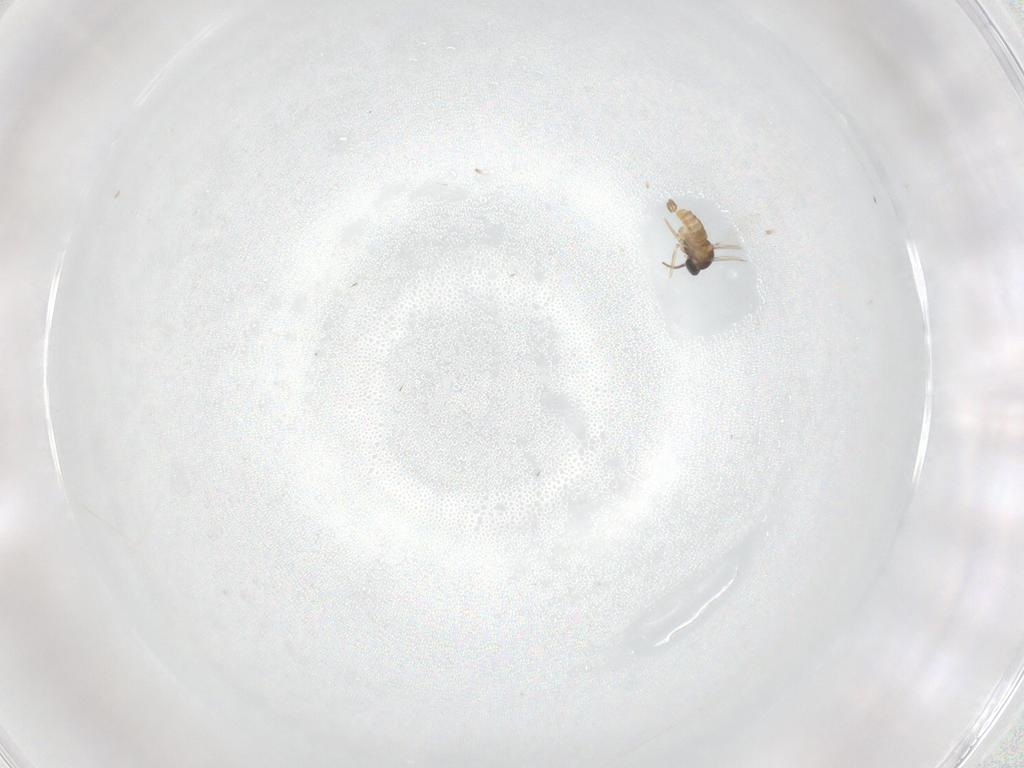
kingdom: Animalia
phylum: Arthropoda
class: Insecta
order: Diptera
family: Cecidomyiidae
